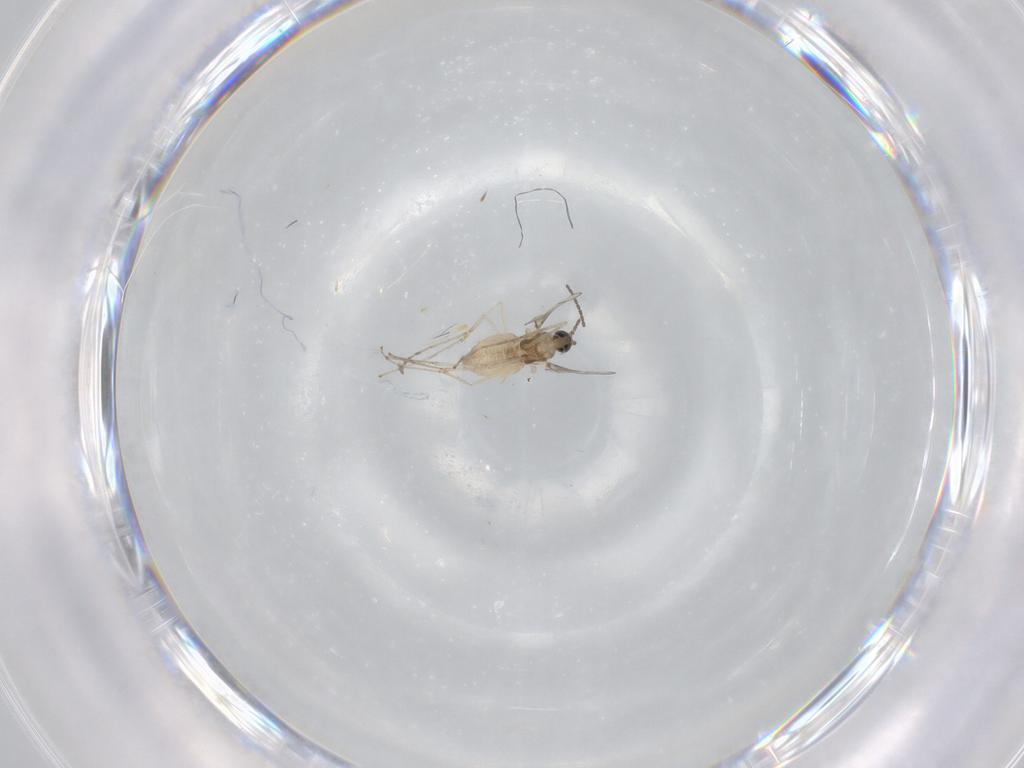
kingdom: Animalia
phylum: Arthropoda
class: Insecta
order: Diptera
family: Cecidomyiidae
